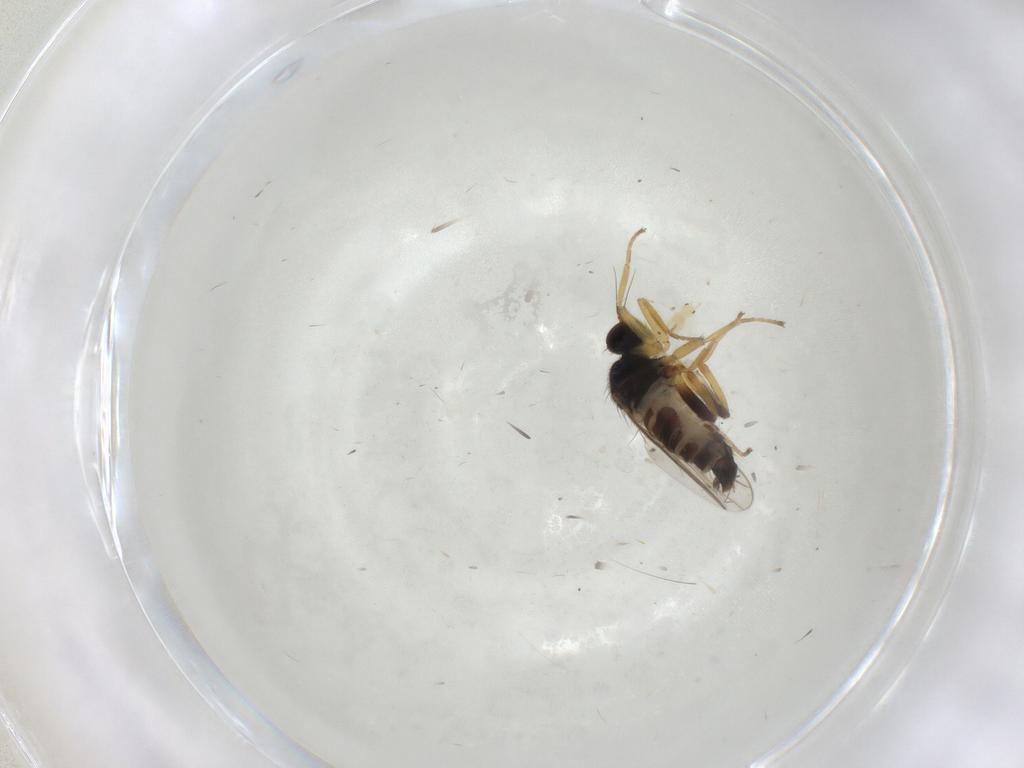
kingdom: Animalia
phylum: Arthropoda
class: Insecta
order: Diptera
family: Hybotidae
